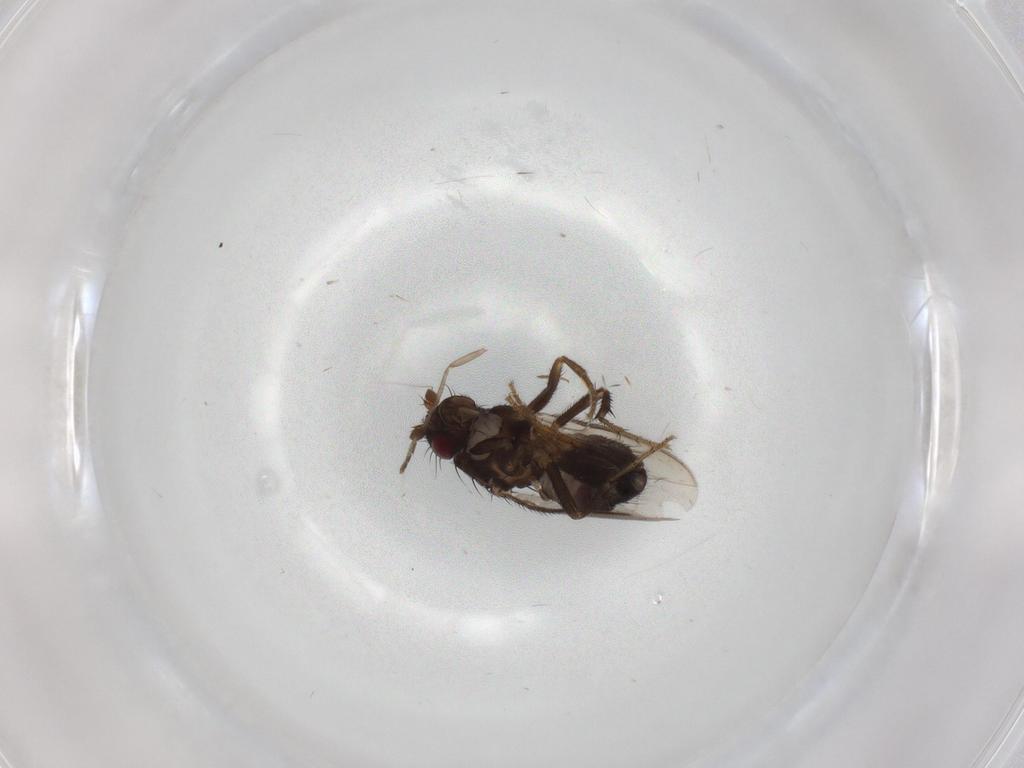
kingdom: Animalia
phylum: Arthropoda
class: Insecta
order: Diptera
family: Sphaeroceridae
